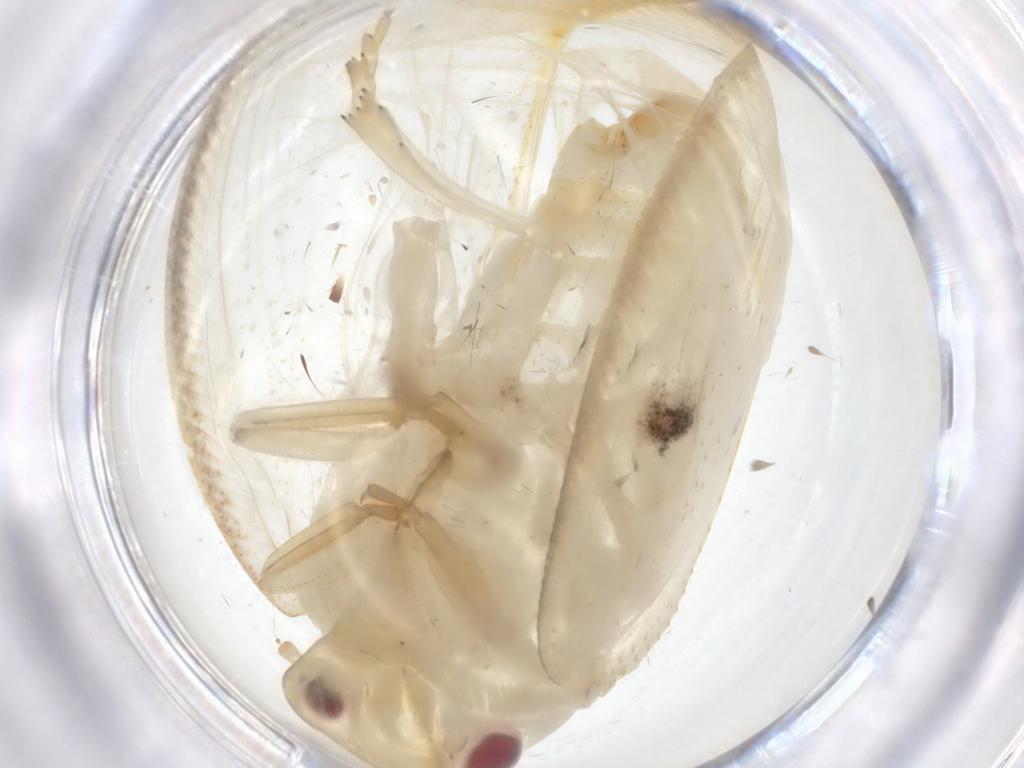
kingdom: Animalia
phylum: Arthropoda
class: Insecta
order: Hemiptera
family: Flatidae
